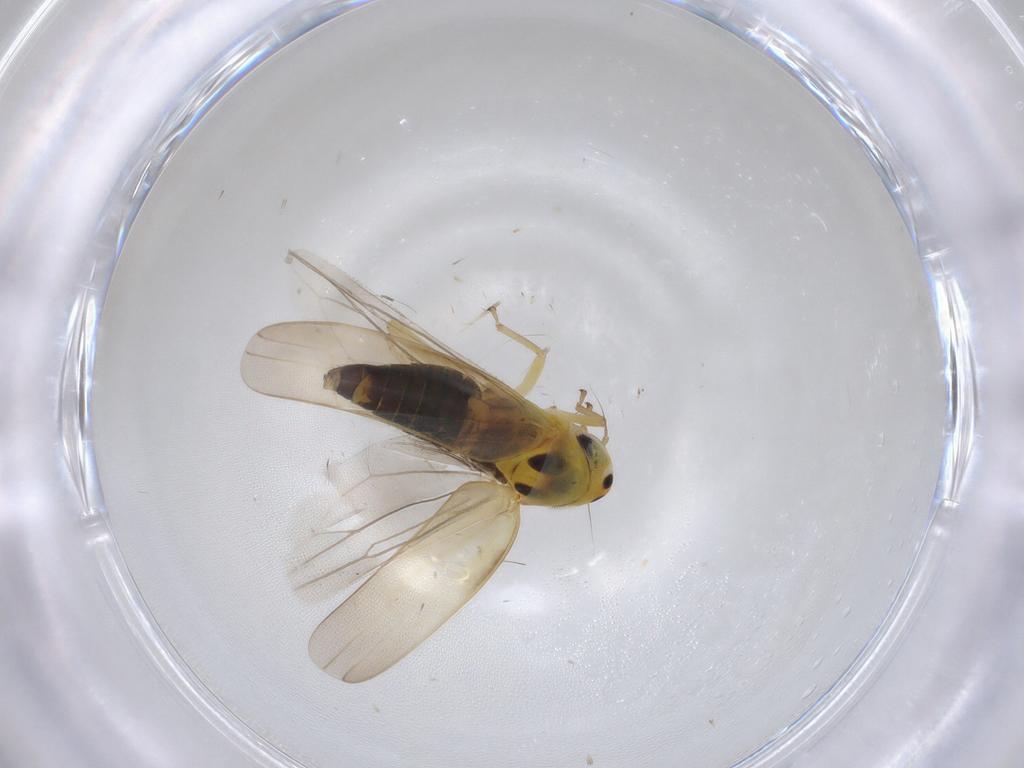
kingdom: Animalia
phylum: Arthropoda
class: Insecta
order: Hemiptera
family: Cicadellidae
